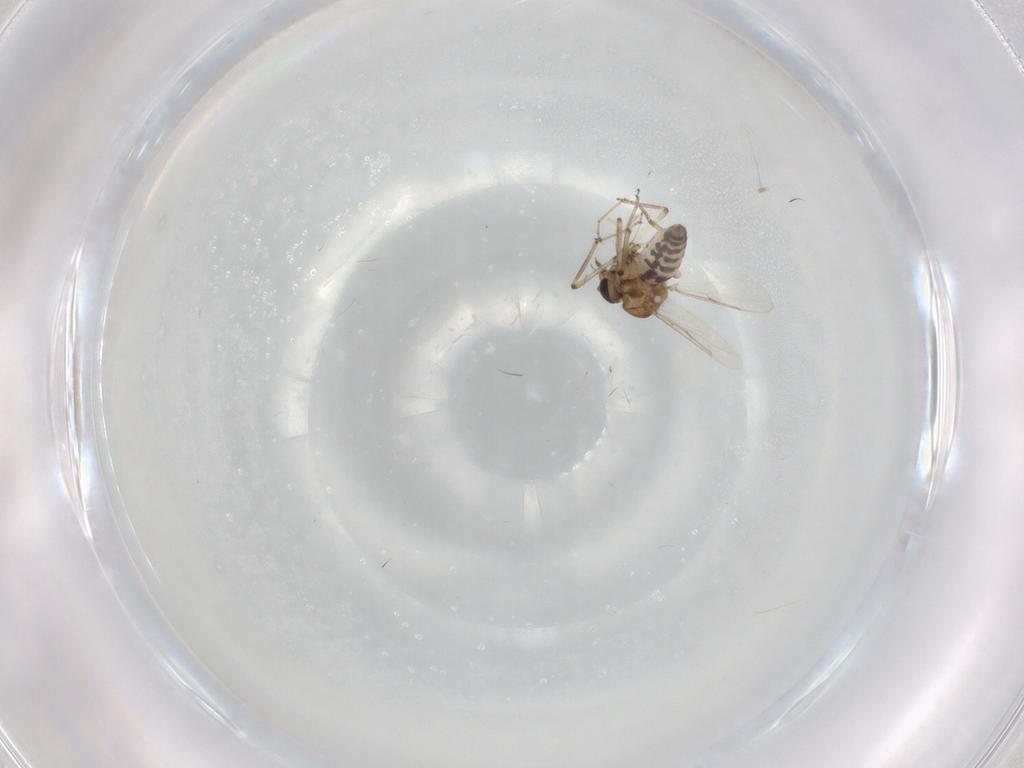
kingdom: Animalia
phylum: Arthropoda
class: Insecta
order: Diptera
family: Ceratopogonidae
